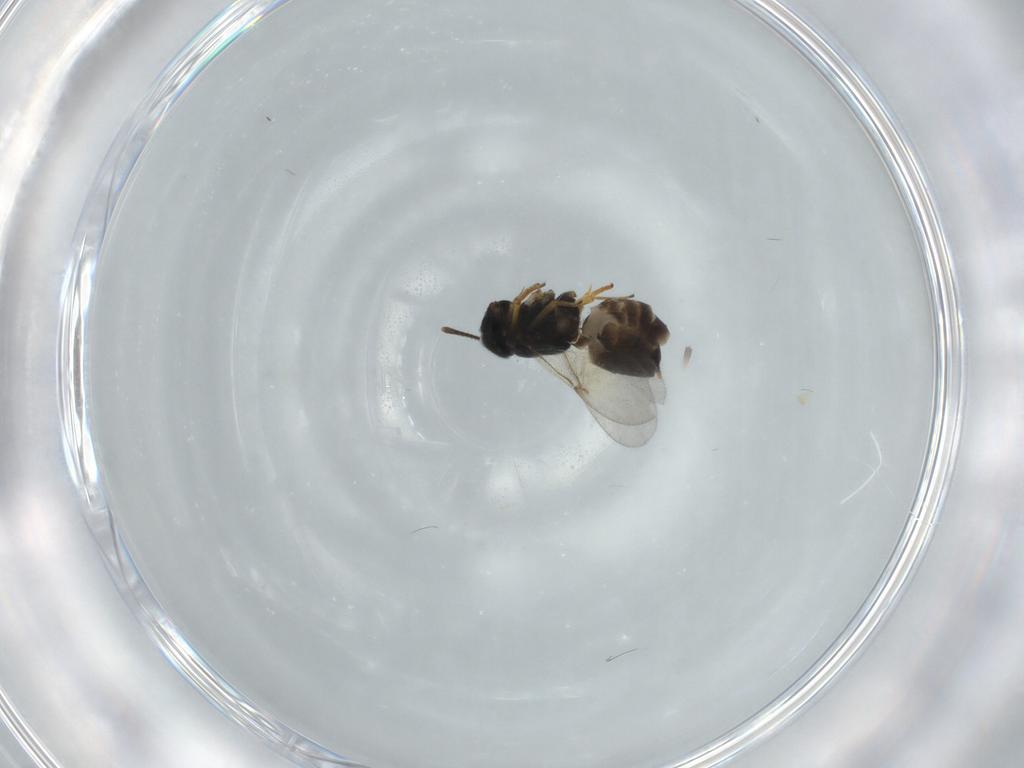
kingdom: Animalia
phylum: Arthropoda
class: Insecta
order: Hymenoptera
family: Encyrtidae
